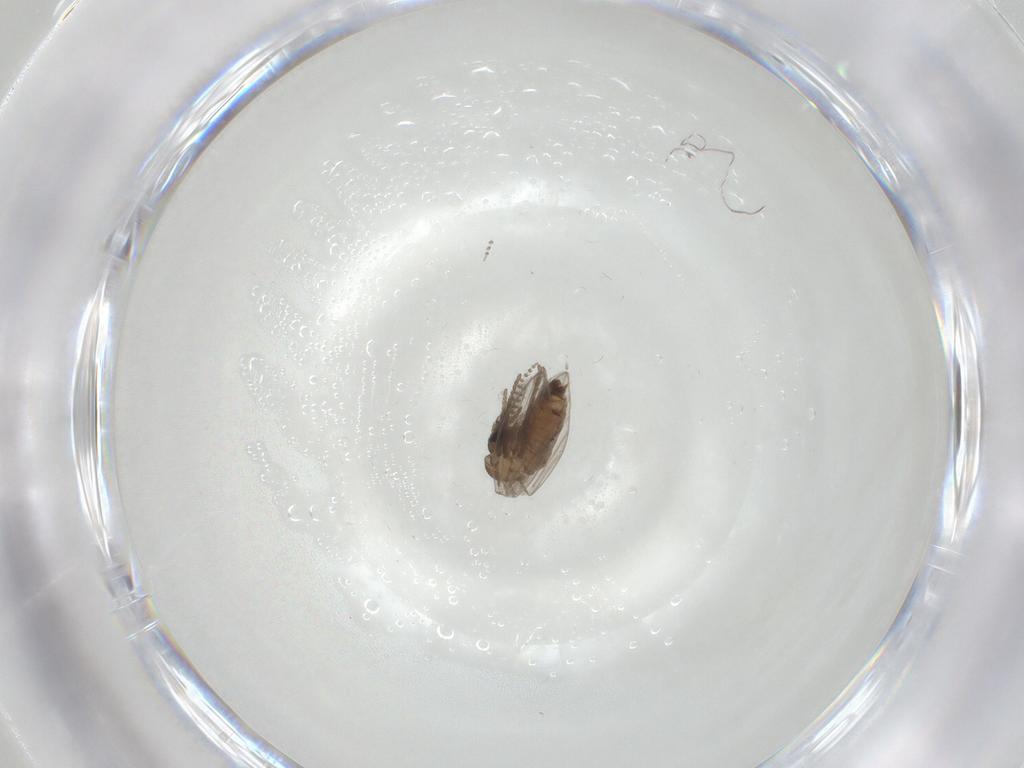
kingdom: Animalia
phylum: Arthropoda
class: Insecta
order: Diptera
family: Psychodidae
